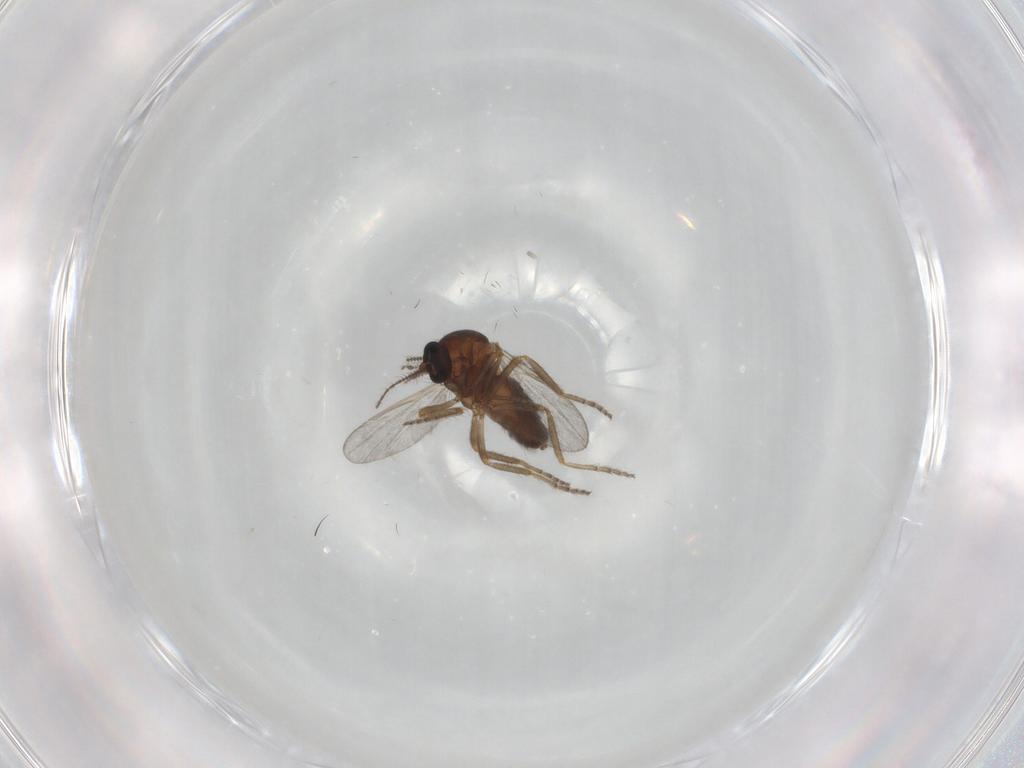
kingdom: Animalia
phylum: Arthropoda
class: Insecta
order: Diptera
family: Ceratopogonidae
